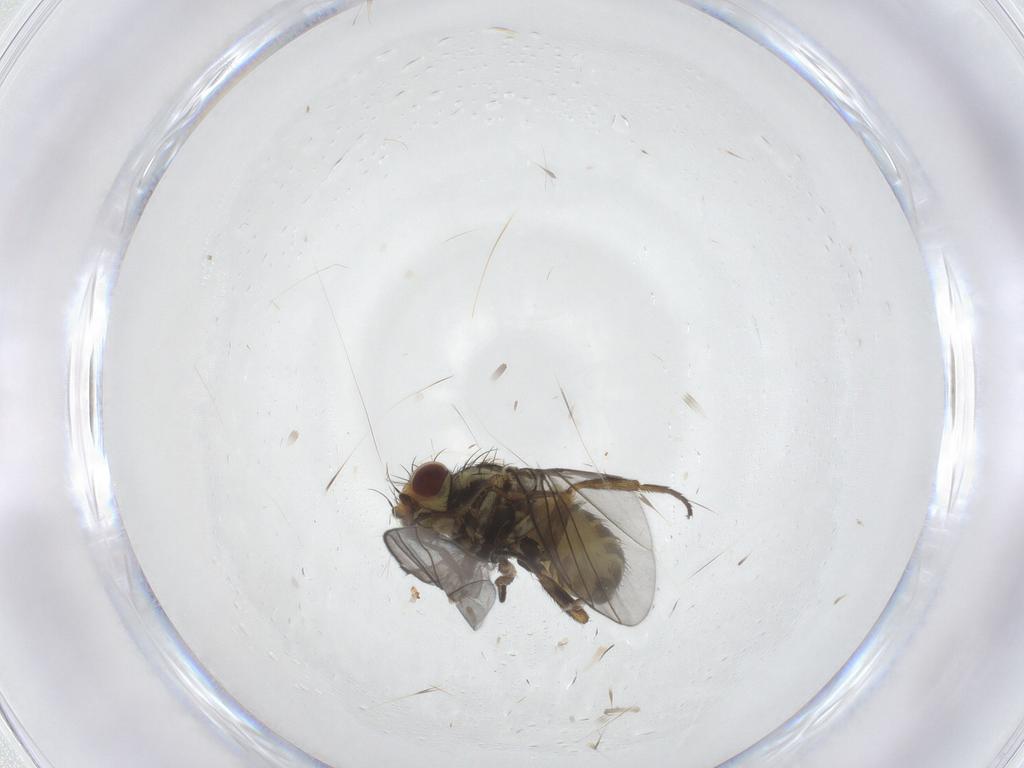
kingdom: Animalia
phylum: Arthropoda
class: Insecta
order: Diptera
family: Agromyzidae
